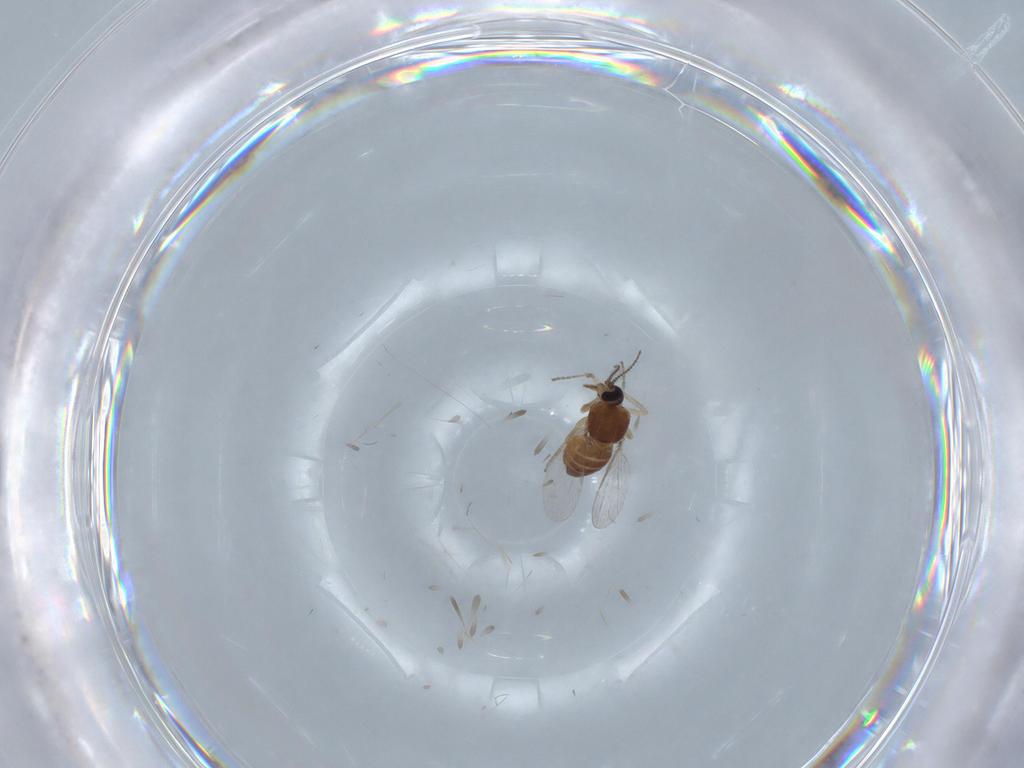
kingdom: Animalia
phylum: Arthropoda
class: Insecta
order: Diptera
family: Ceratopogonidae
